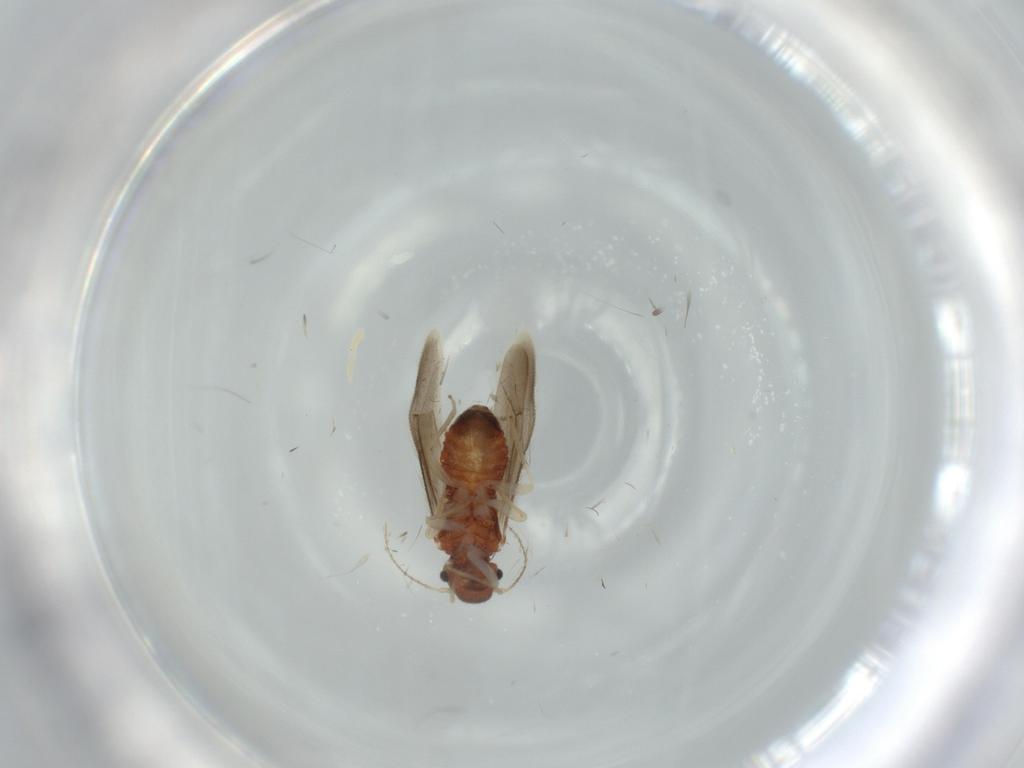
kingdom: Animalia
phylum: Arthropoda
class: Insecta
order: Psocodea
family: Archipsocidae
